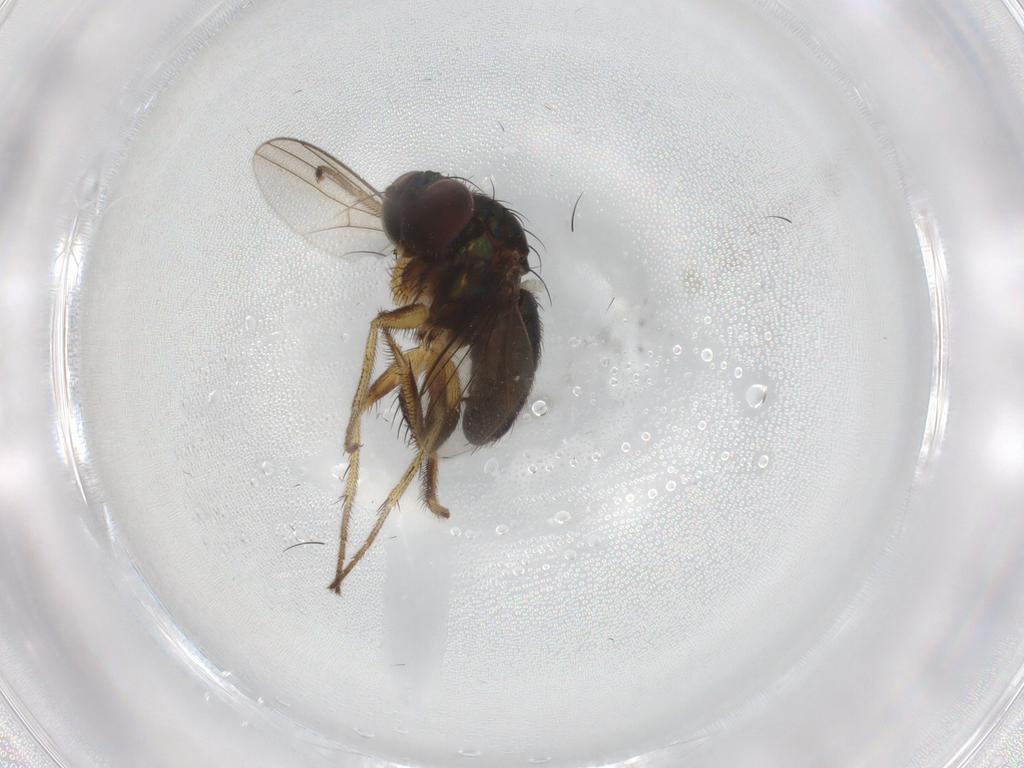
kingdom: Animalia
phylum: Arthropoda
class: Insecta
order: Diptera
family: Dolichopodidae
